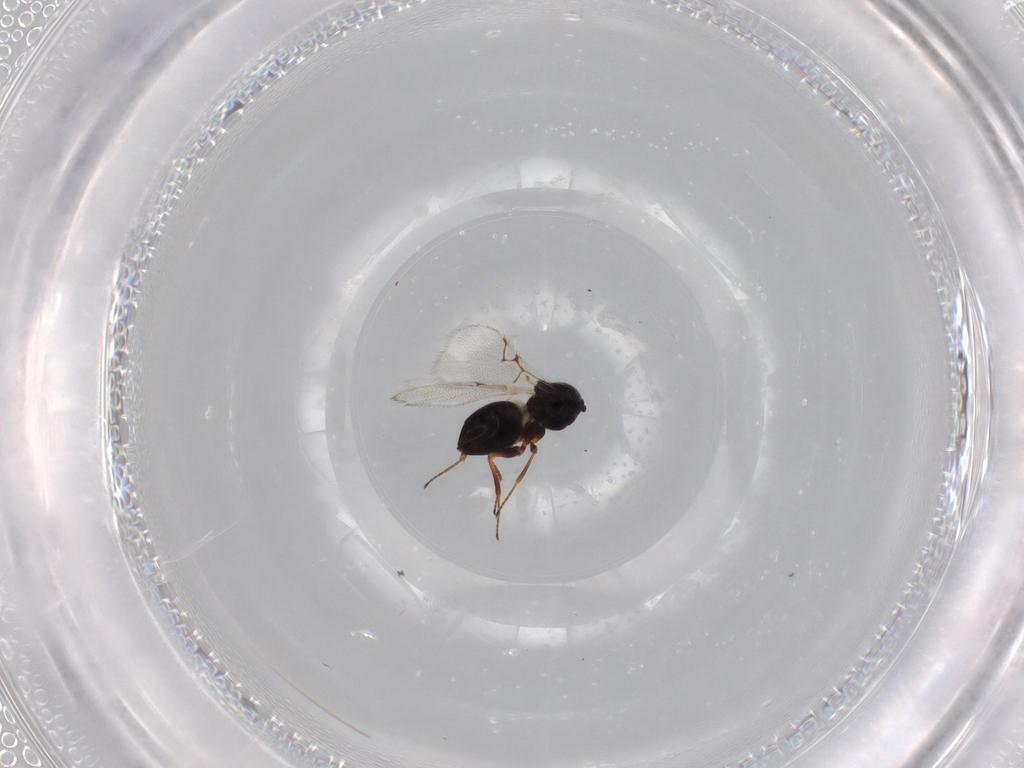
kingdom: Animalia
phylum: Arthropoda
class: Insecta
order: Hymenoptera
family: Figitidae
